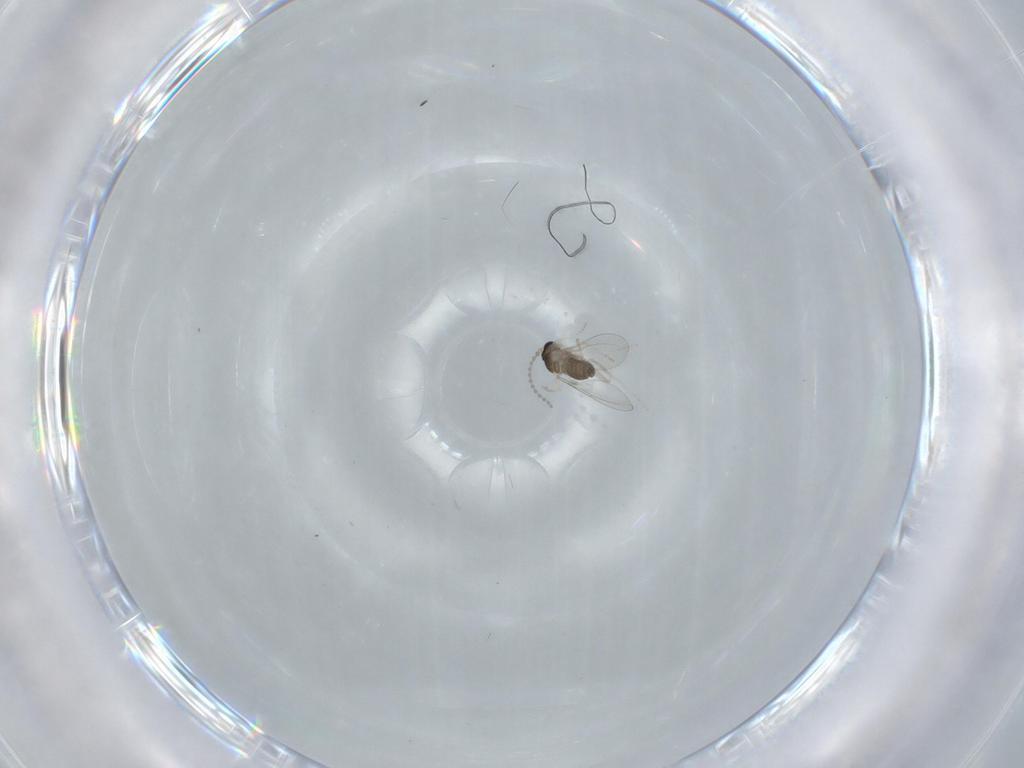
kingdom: Animalia
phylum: Arthropoda
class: Insecta
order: Diptera
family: Cecidomyiidae
